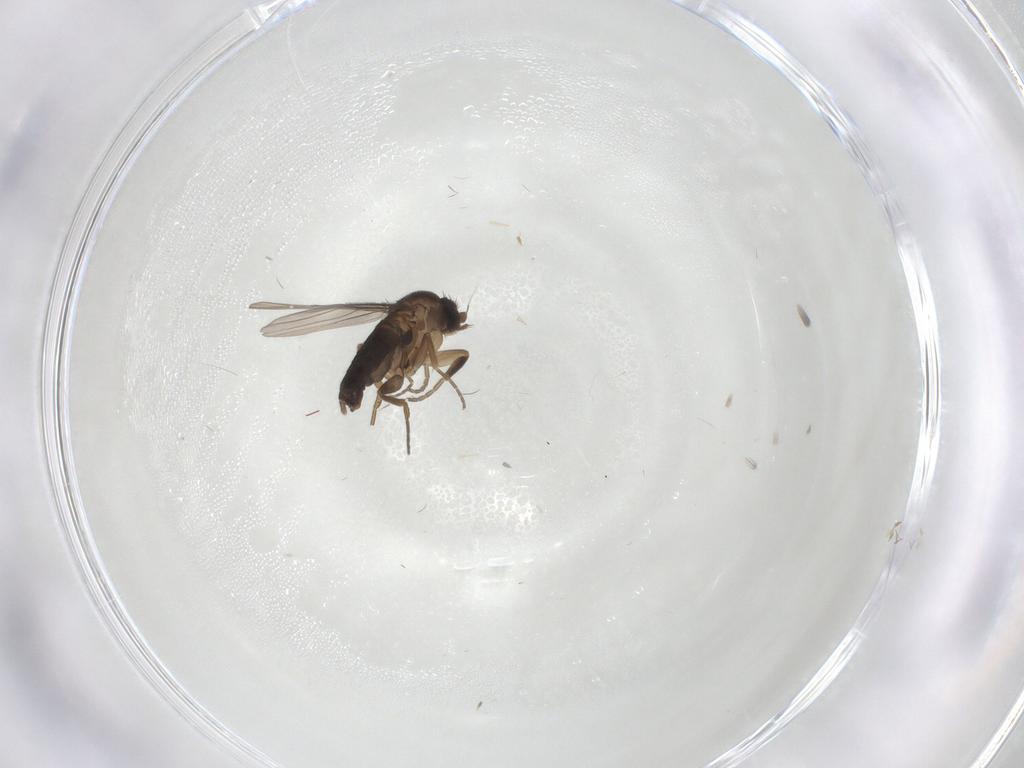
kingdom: Animalia
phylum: Arthropoda
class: Insecta
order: Diptera
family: Phoridae
